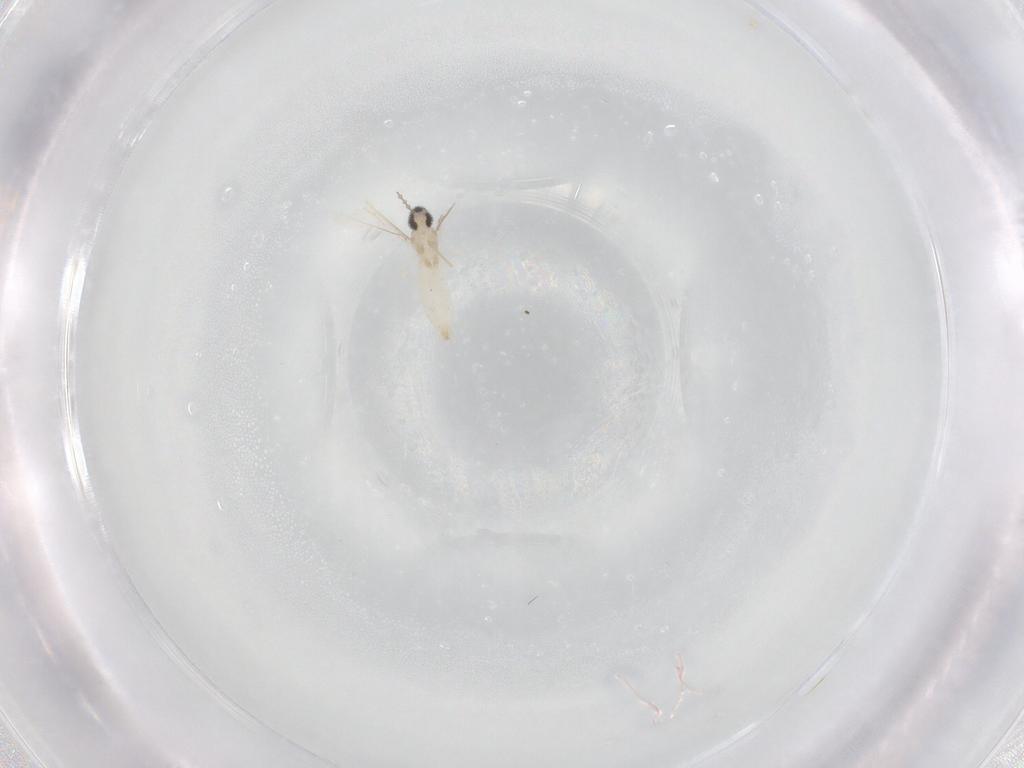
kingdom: Animalia
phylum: Arthropoda
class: Insecta
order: Diptera
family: Cecidomyiidae
